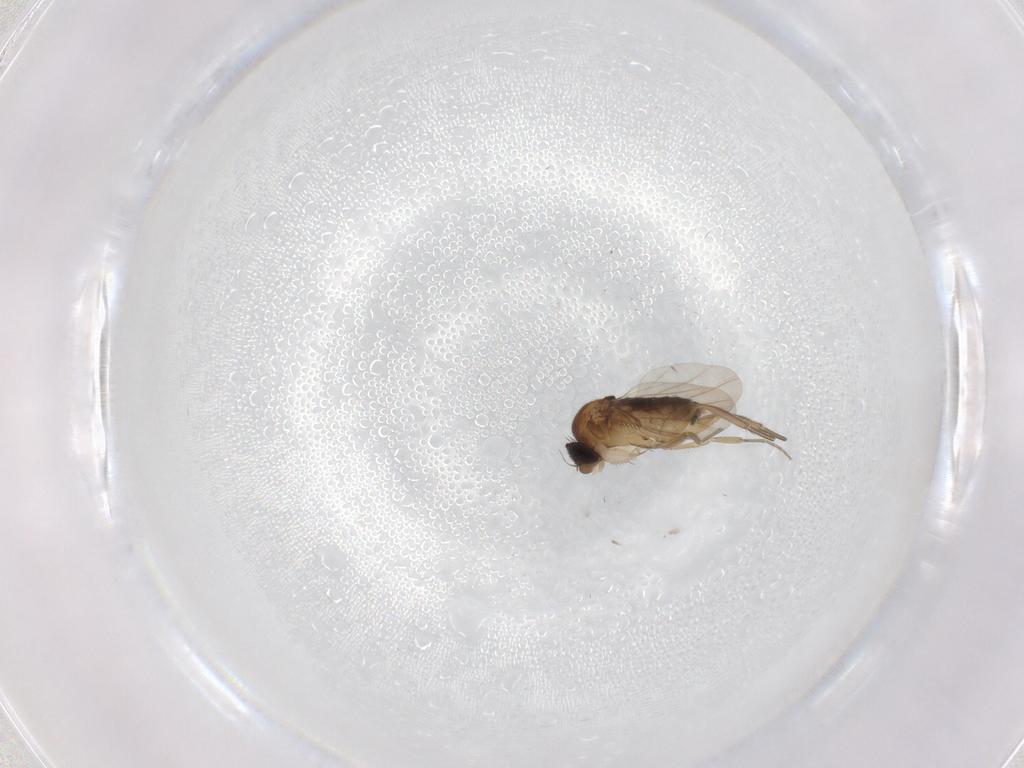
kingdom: Animalia
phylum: Arthropoda
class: Insecta
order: Diptera
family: Phoridae
